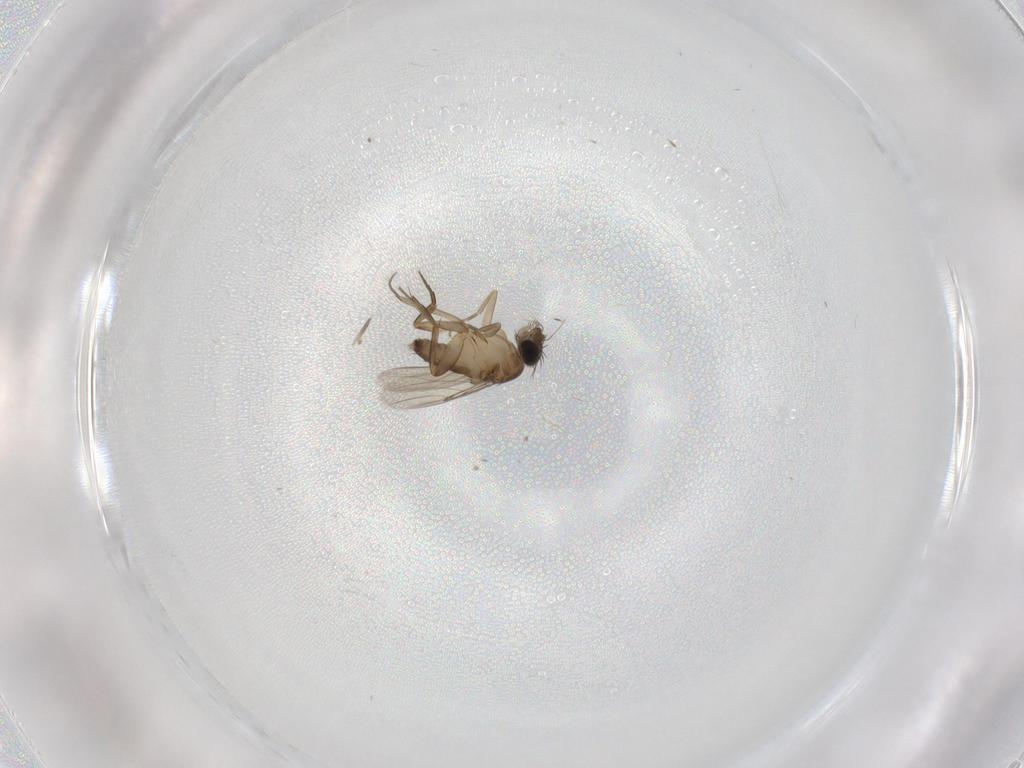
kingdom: Animalia
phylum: Arthropoda
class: Insecta
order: Diptera
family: Phoridae
